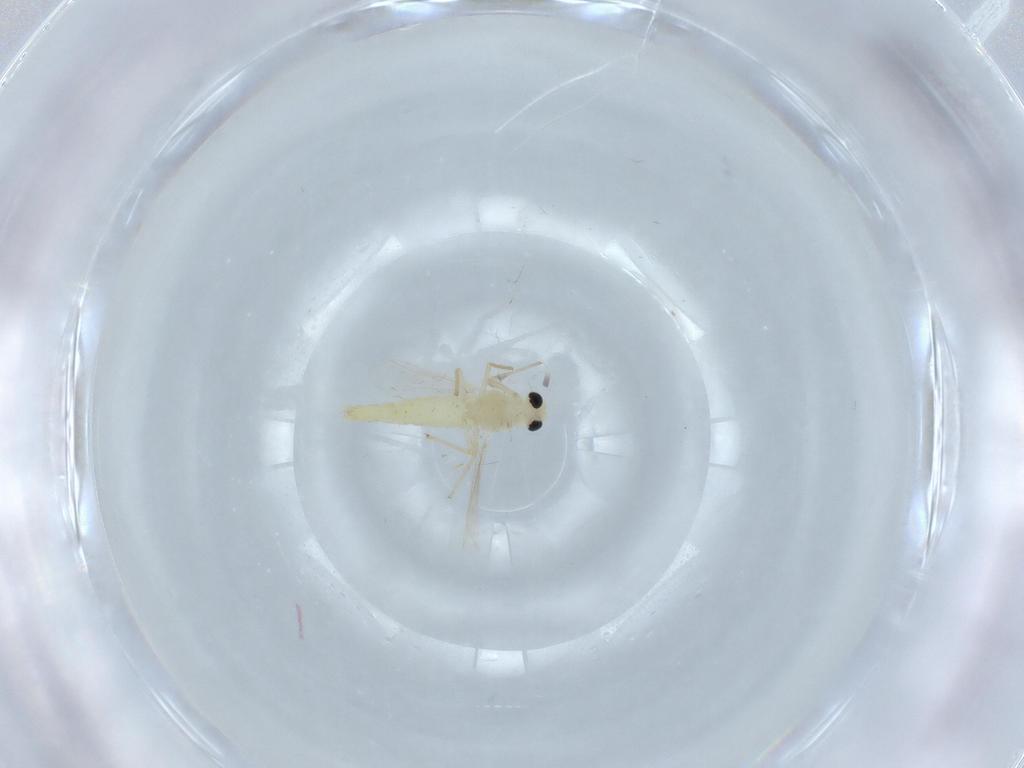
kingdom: Animalia
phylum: Arthropoda
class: Insecta
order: Diptera
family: Chironomidae
